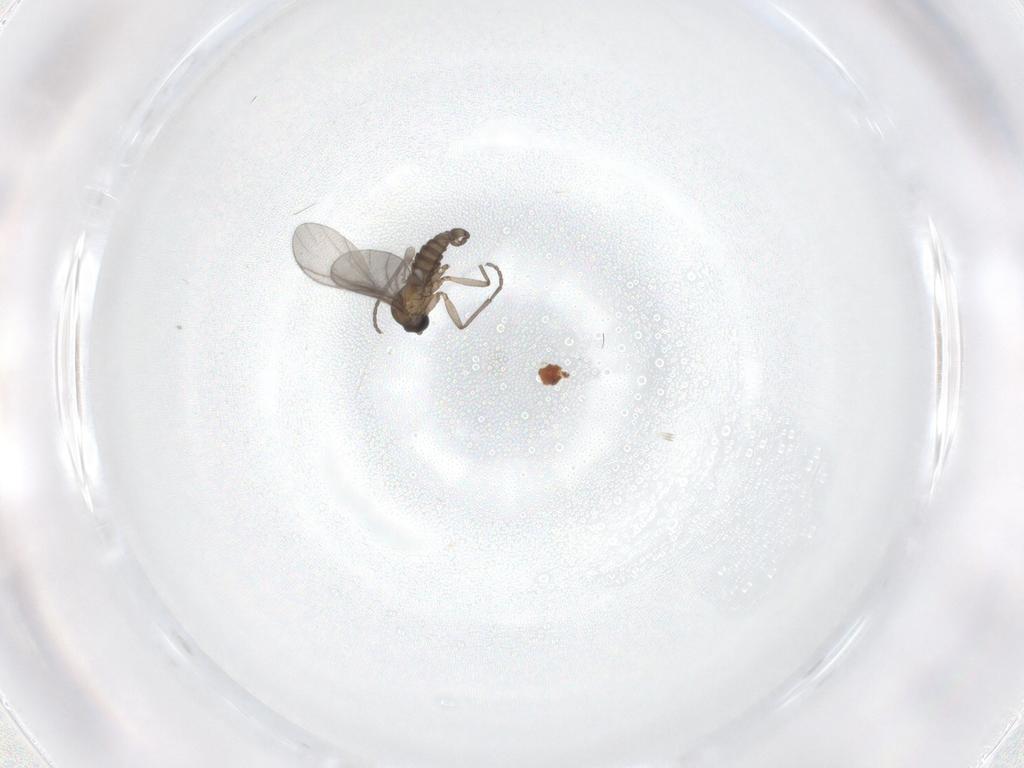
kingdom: Animalia
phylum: Arthropoda
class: Insecta
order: Diptera
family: Sciaridae
